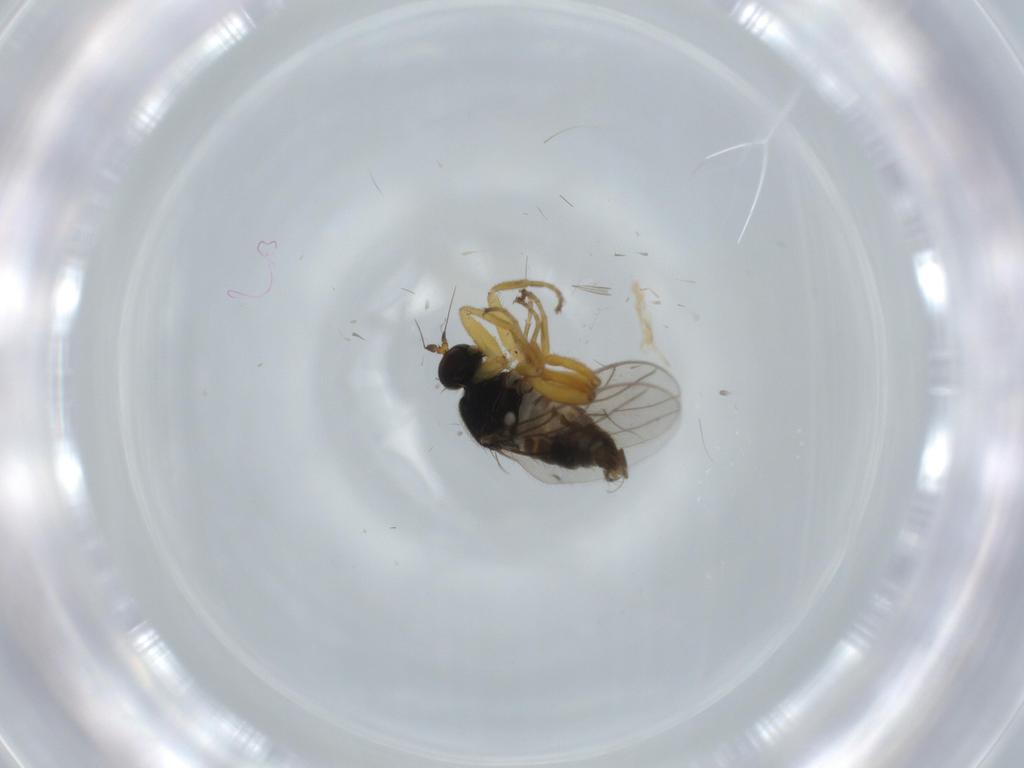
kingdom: Animalia
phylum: Arthropoda
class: Insecta
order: Diptera
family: Hybotidae
